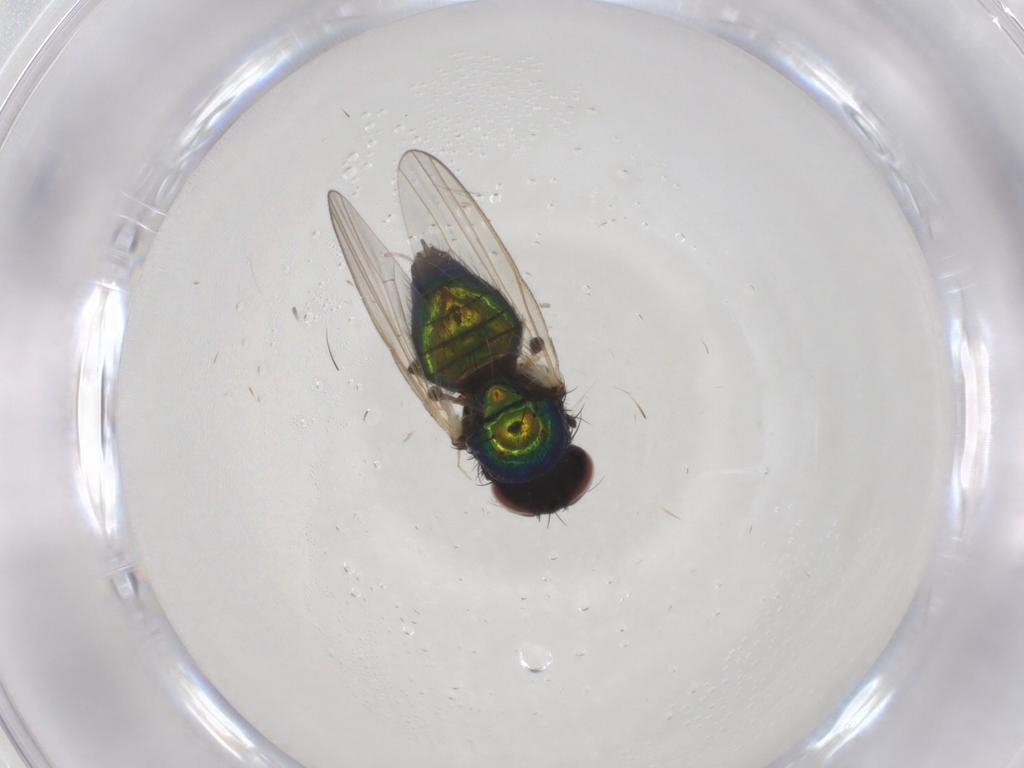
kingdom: Animalia
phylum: Arthropoda
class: Insecta
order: Diptera
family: Lonchaeidae
